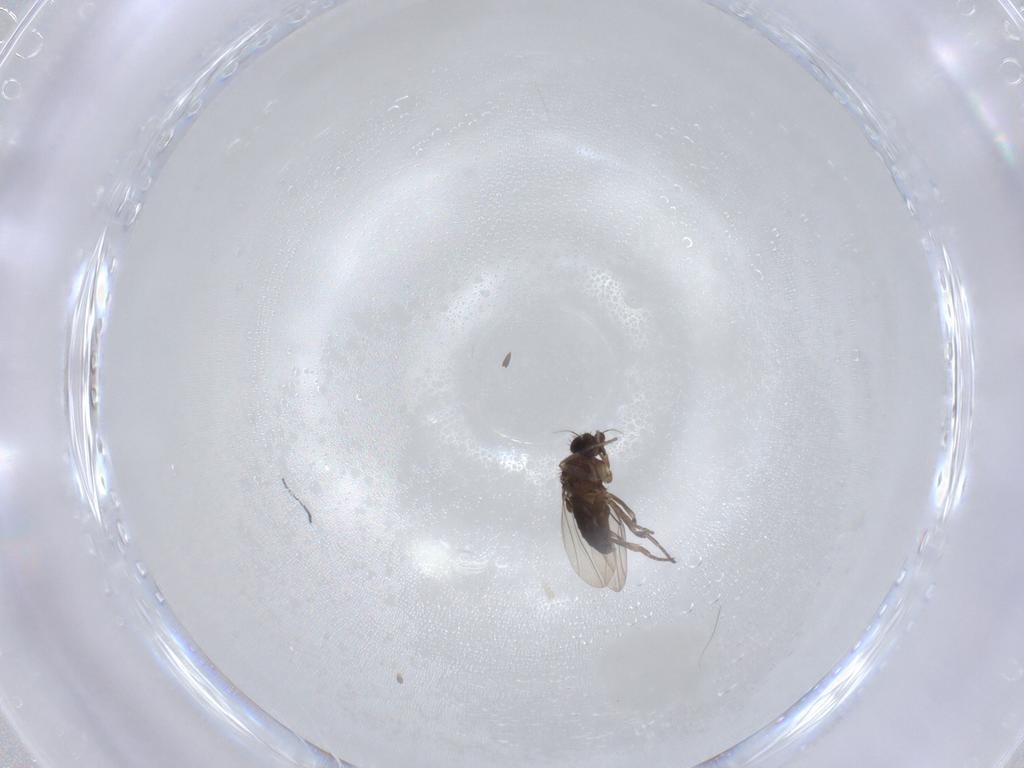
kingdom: Animalia
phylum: Arthropoda
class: Insecta
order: Diptera
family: Phoridae
